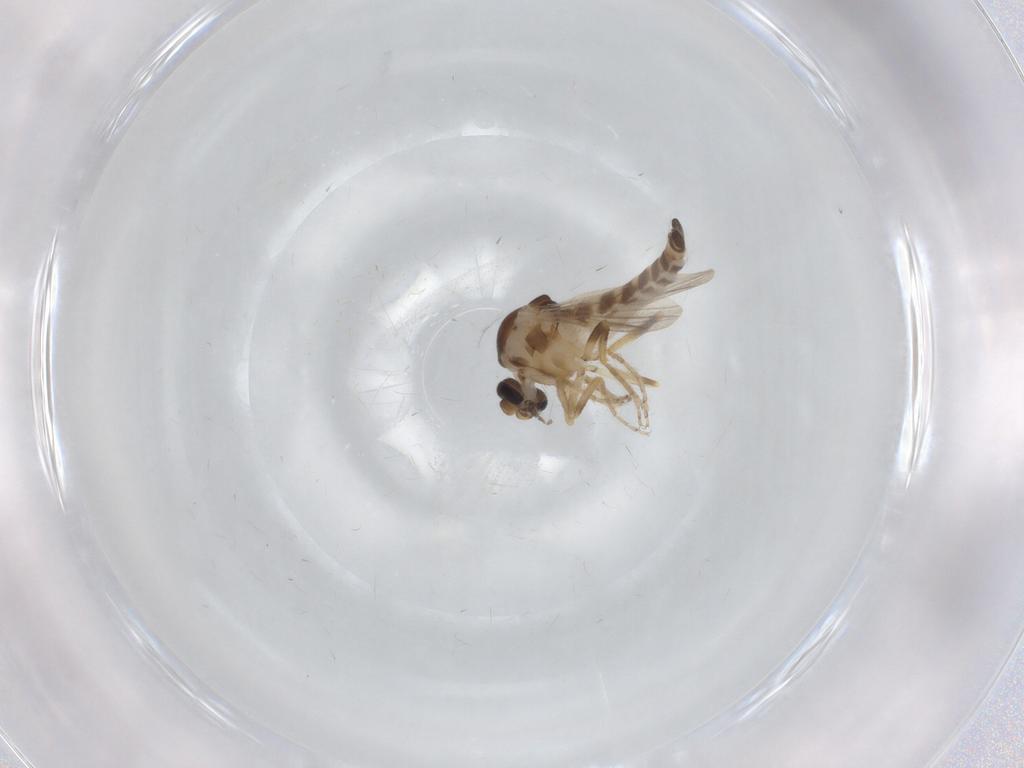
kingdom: Animalia
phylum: Arthropoda
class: Insecta
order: Diptera
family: Ceratopogonidae
